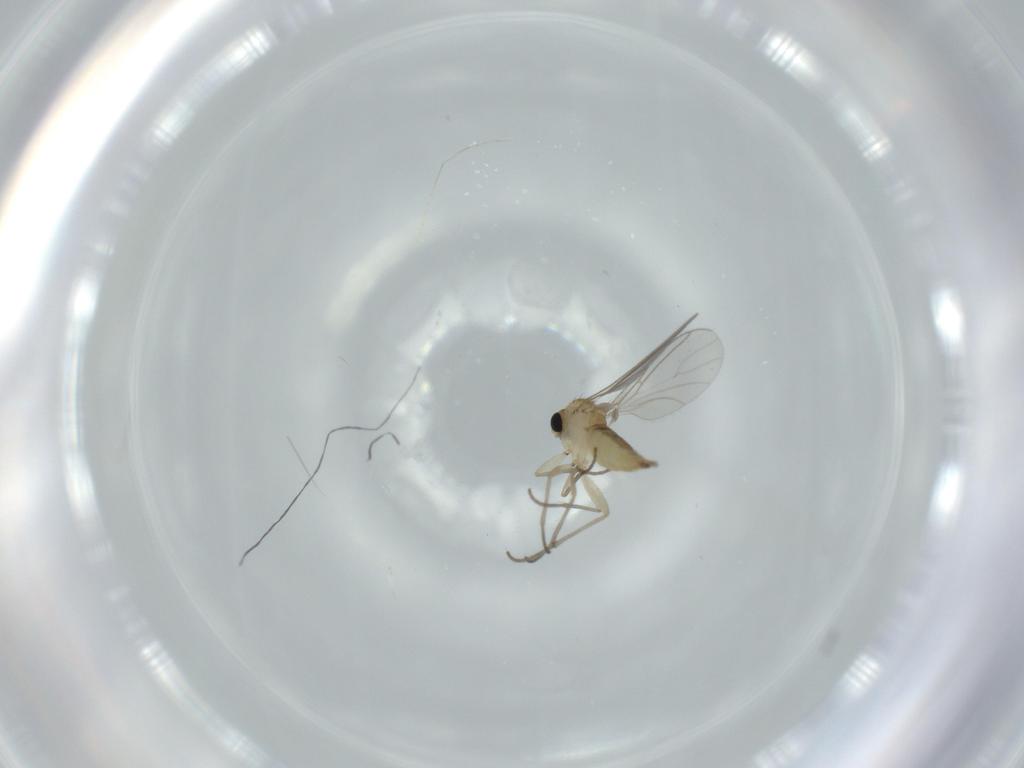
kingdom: Animalia
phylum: Arthropoda
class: Insecta
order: Diptera
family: Sciaridae
